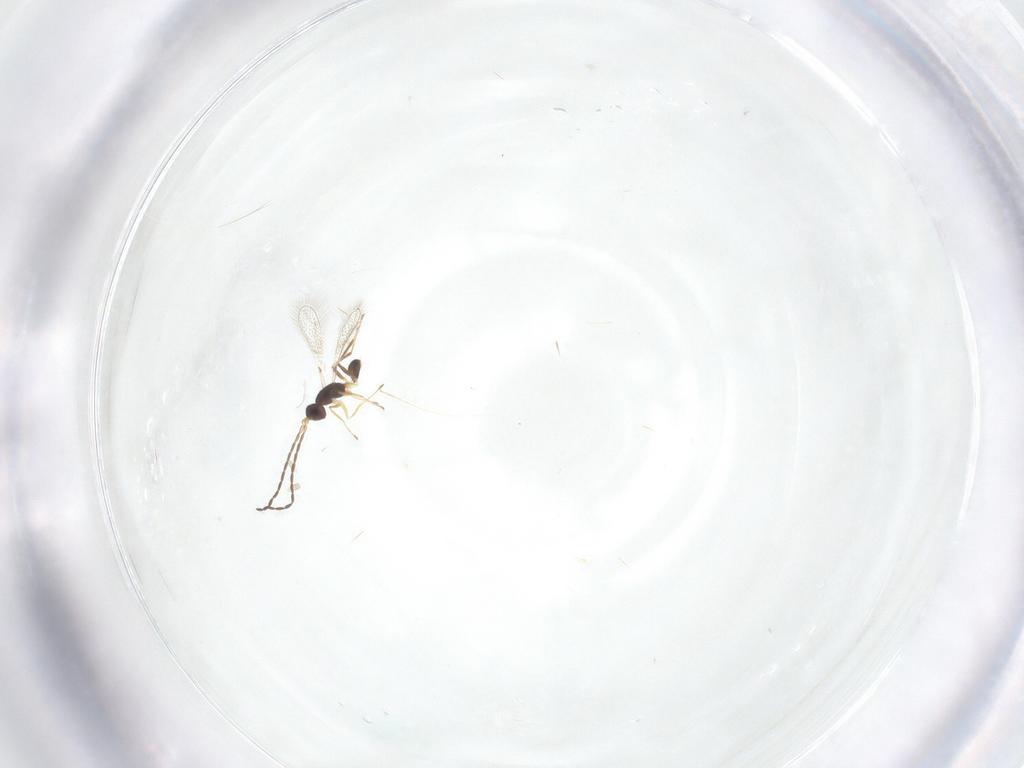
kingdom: Animalia
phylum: Arthropoda
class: Insecta
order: Hymenoptera
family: Mymaridae
